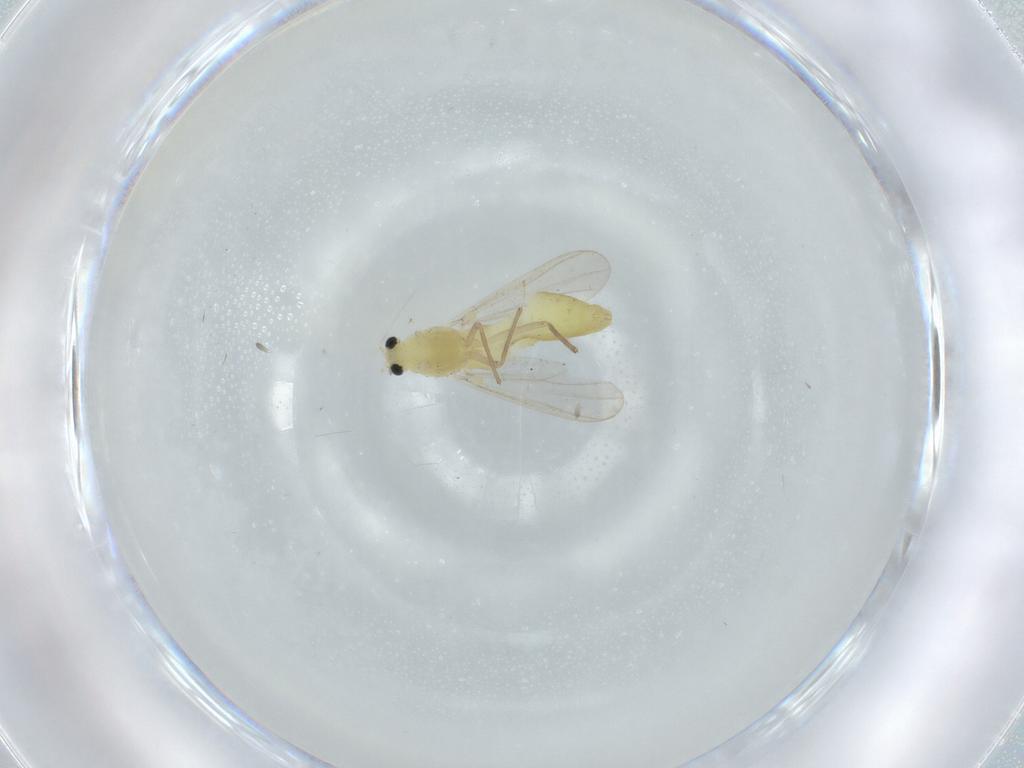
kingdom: Animalia
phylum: Arthropoda
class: Insecta
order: Diptera
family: Chironomidae
